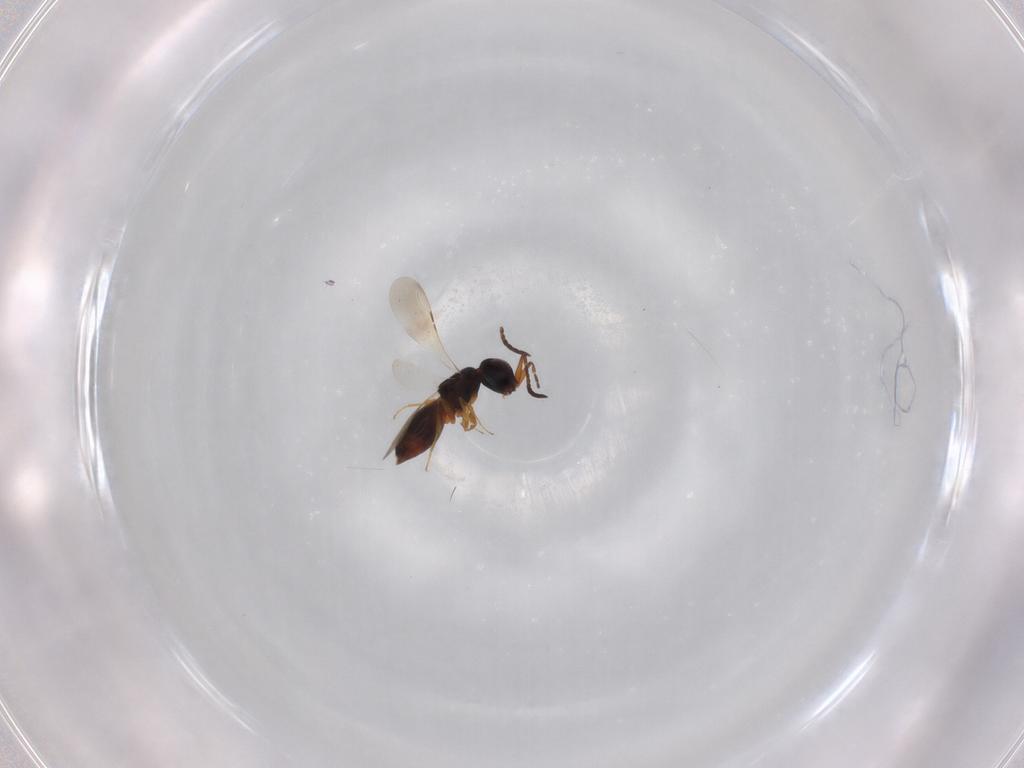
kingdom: Animalia
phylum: Arthropoda
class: Insecta
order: Hymenoptera
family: Ceraphronidae
